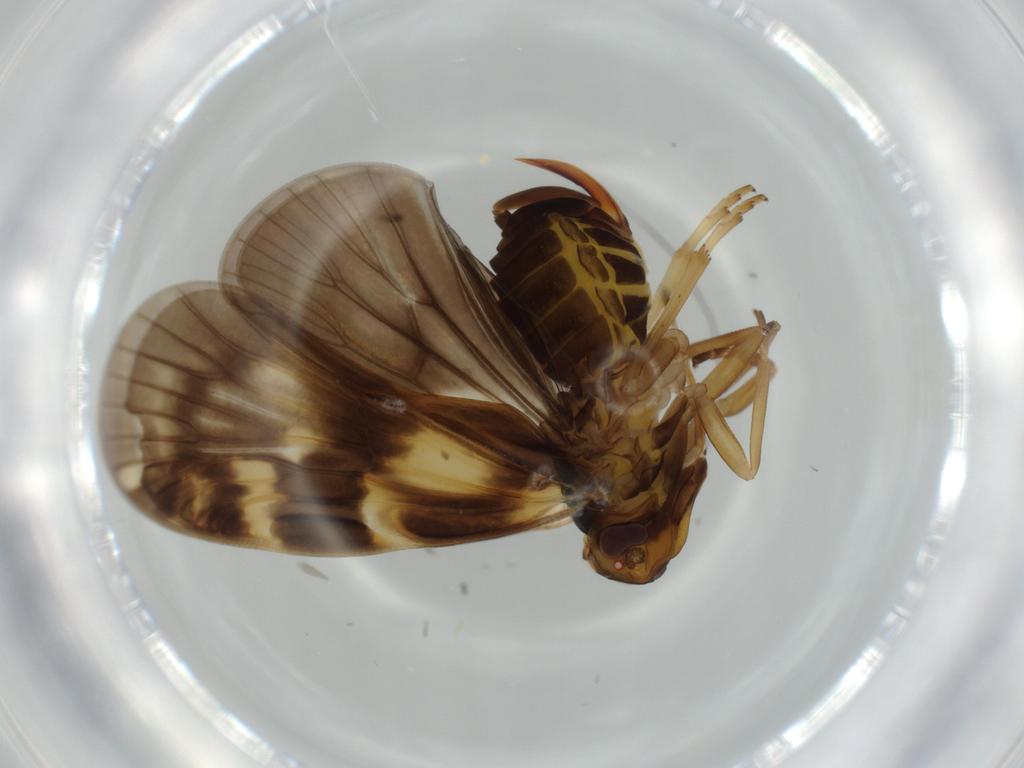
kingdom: Animalia
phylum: Arthropoda
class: Insecta
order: Hemiptera
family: Cixiidae
